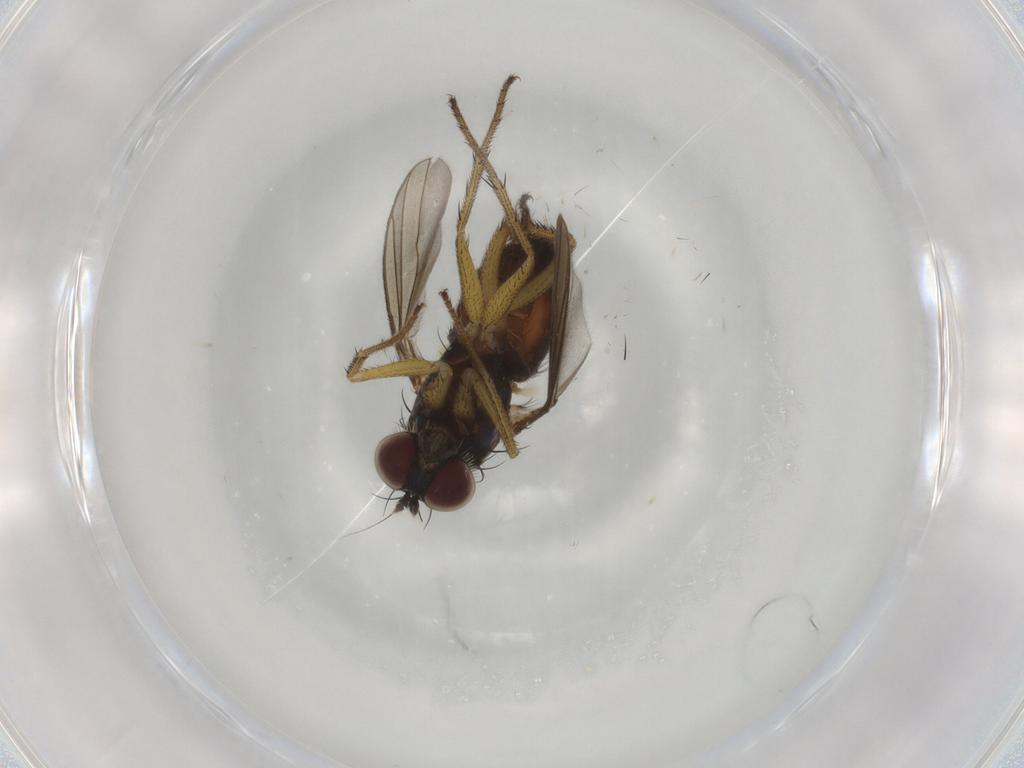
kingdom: Animalia
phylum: Arthropoda
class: Insecta
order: Diptera
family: Dolichopodidae
